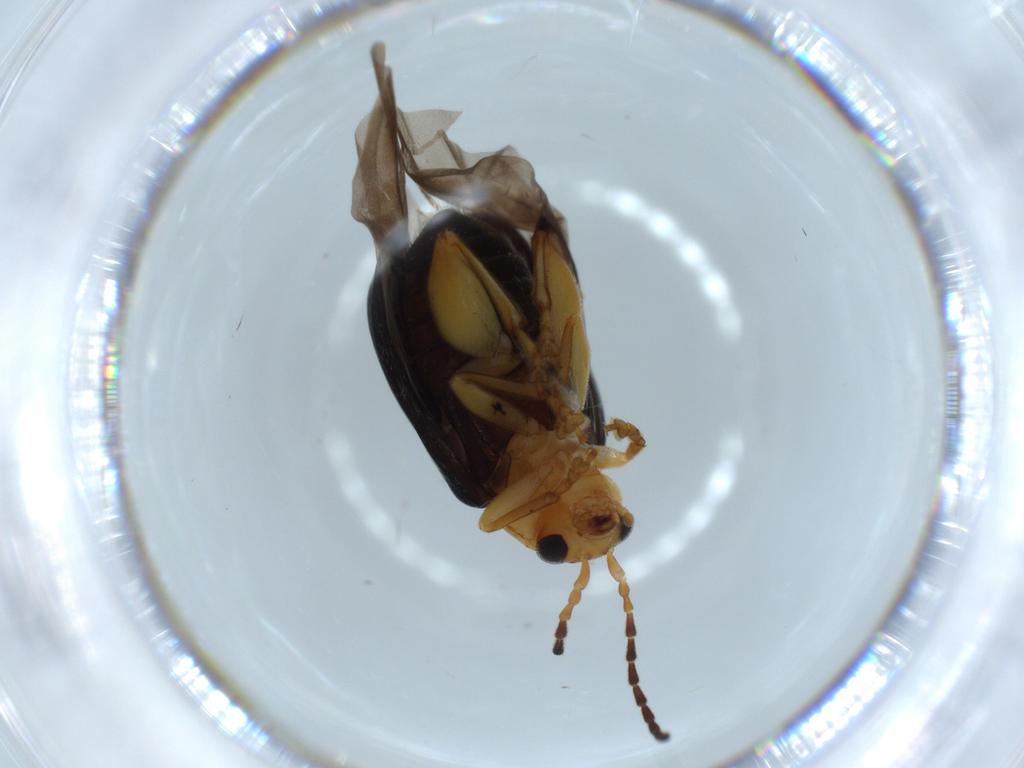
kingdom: Animalia
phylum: Arthropoda
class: Insecta
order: Coleoptera
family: Chrysomelidae
